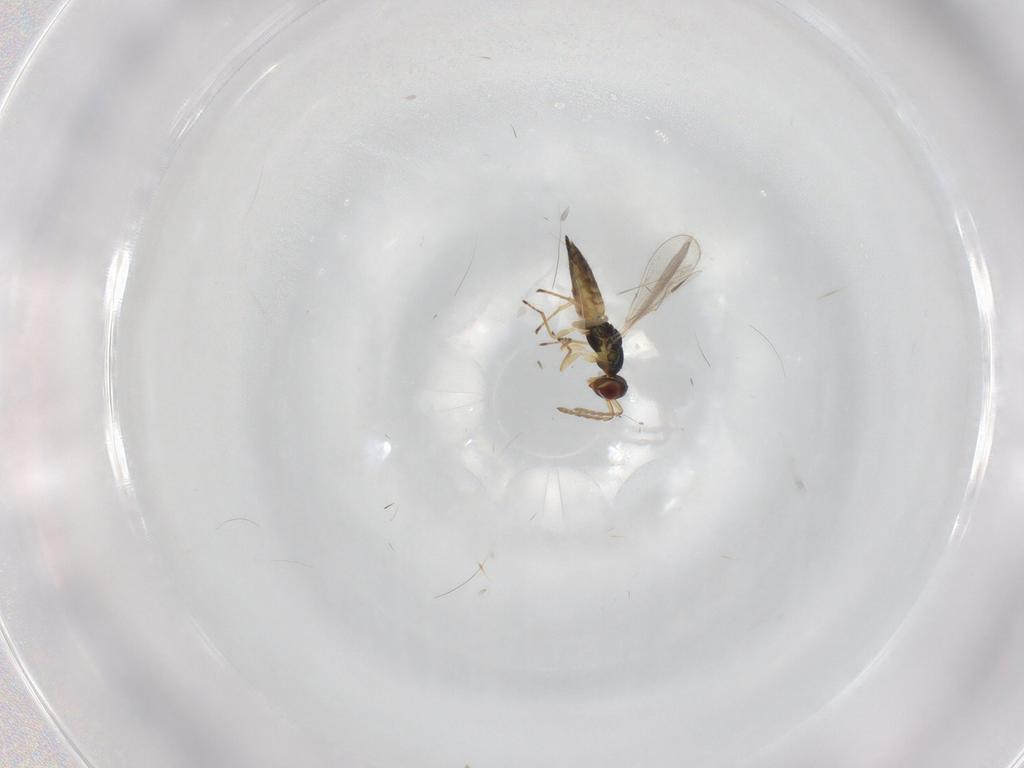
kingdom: Animalia
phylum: Arthropoda
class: Insecta
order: Hymenoptera
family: Eulophidae
